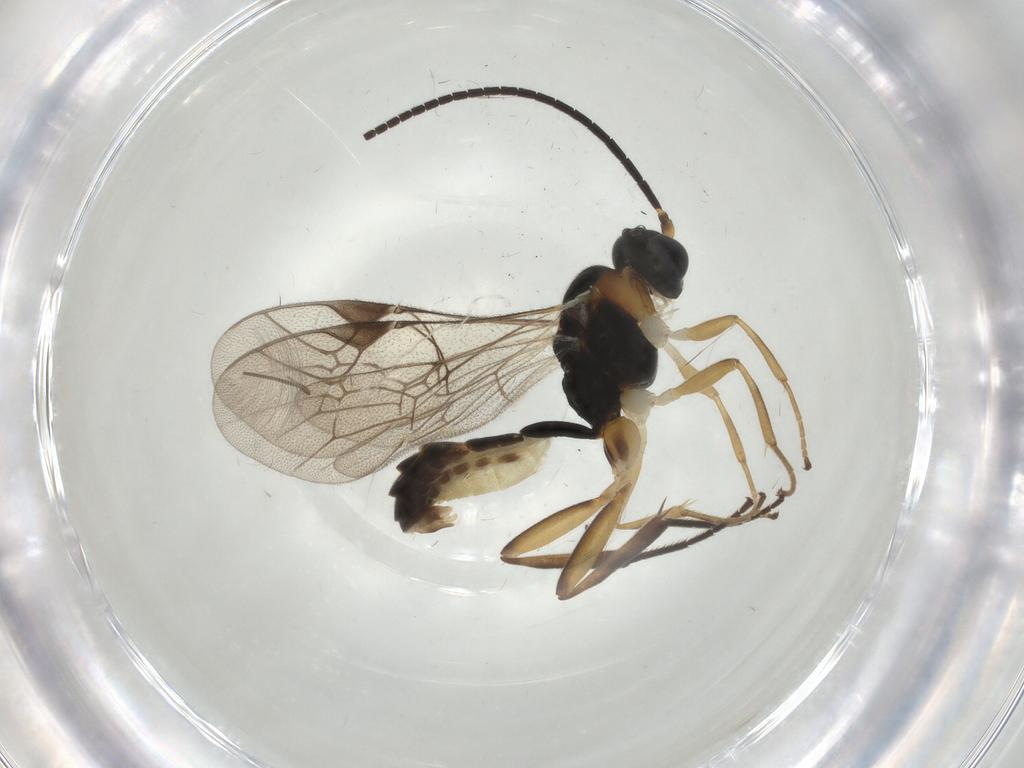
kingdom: Animalia
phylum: Arthropoda
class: Insecta
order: Hymenoptera
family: Ichneumonidae
